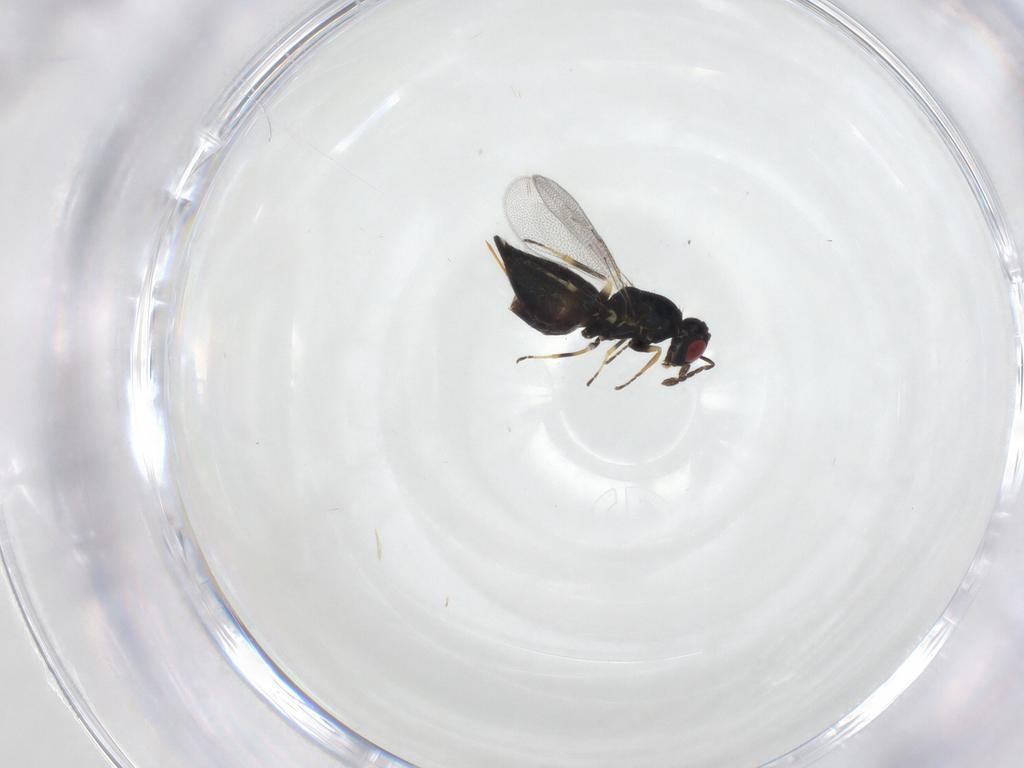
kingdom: Animalia
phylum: Arthropoda
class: Insecta
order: Hymenoptera
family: Eulophidae
